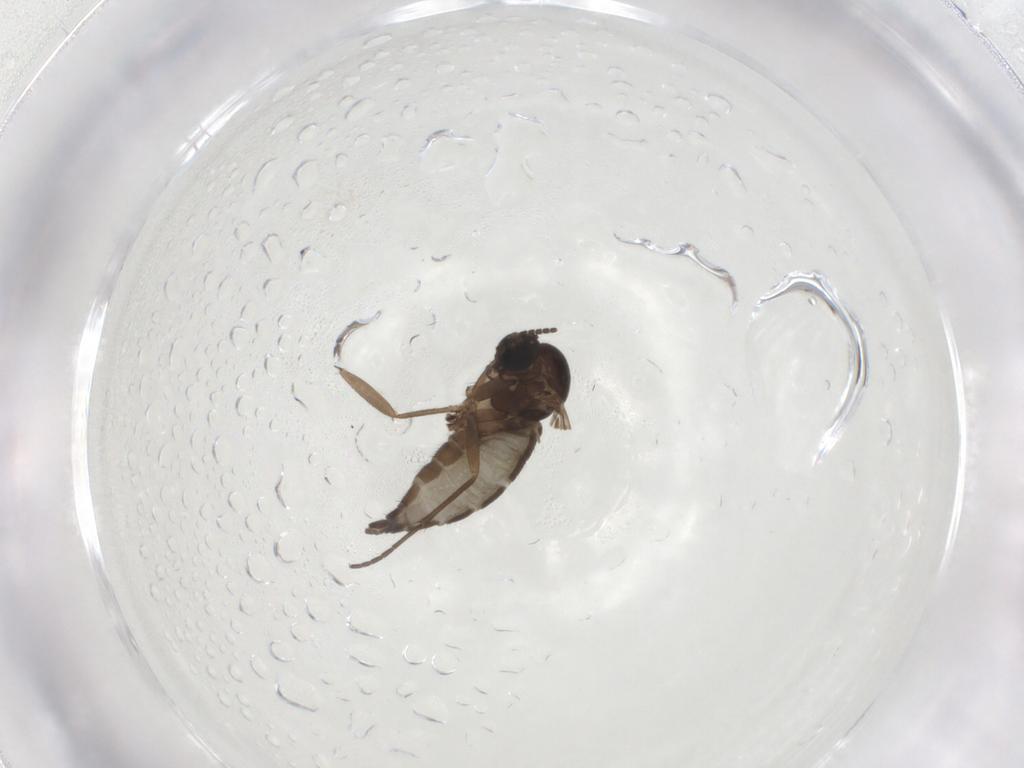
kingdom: Animalia
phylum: Arthropoda
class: Insecta
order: Diptera
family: Sciaridae
